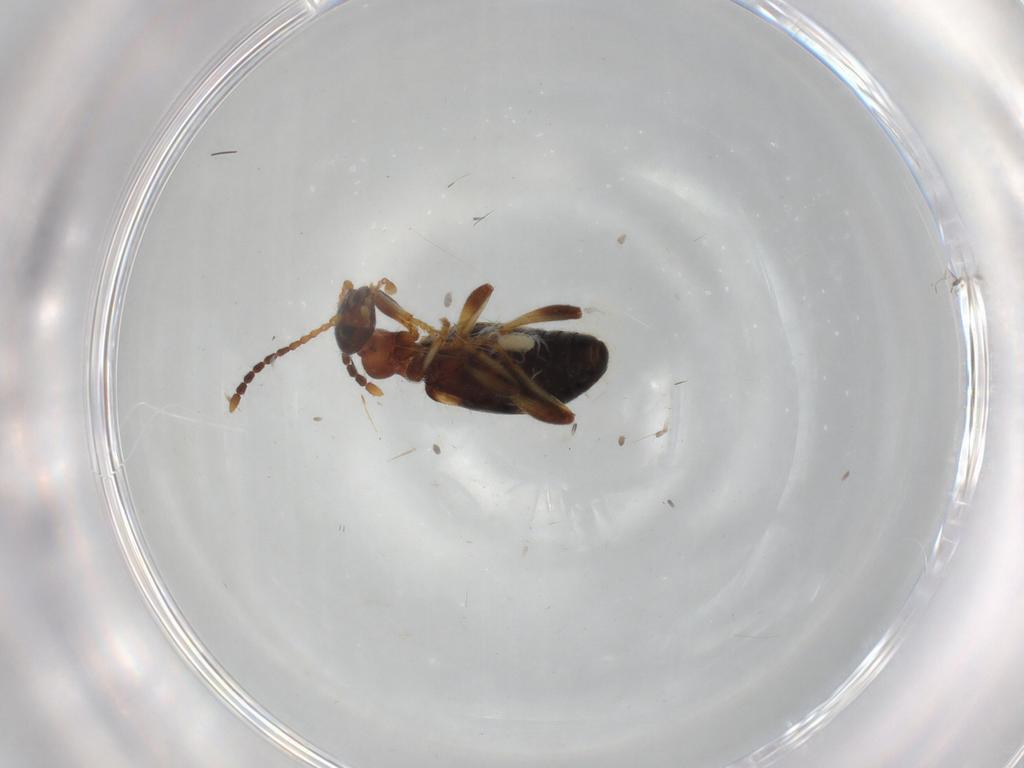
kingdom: Animalia
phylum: Arthropoda
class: Insecta
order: Coleoptera
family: Anthicidae
